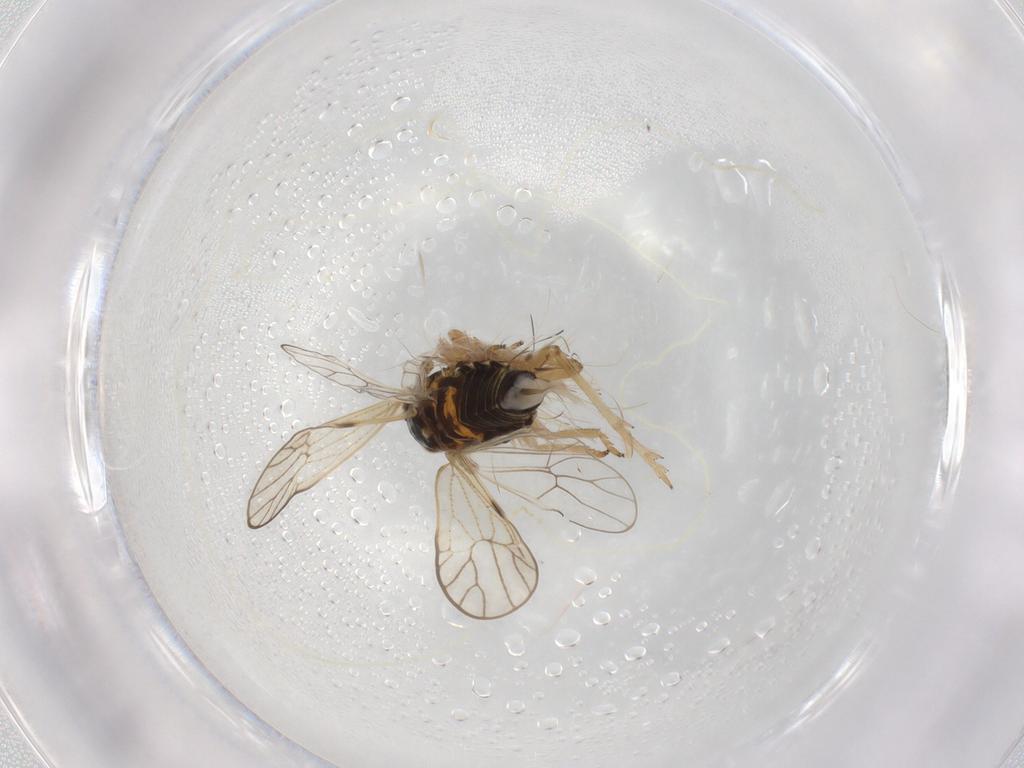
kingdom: Animalia
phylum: Arthropoda
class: Insecta
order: Hemiptera
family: Delphacidae
